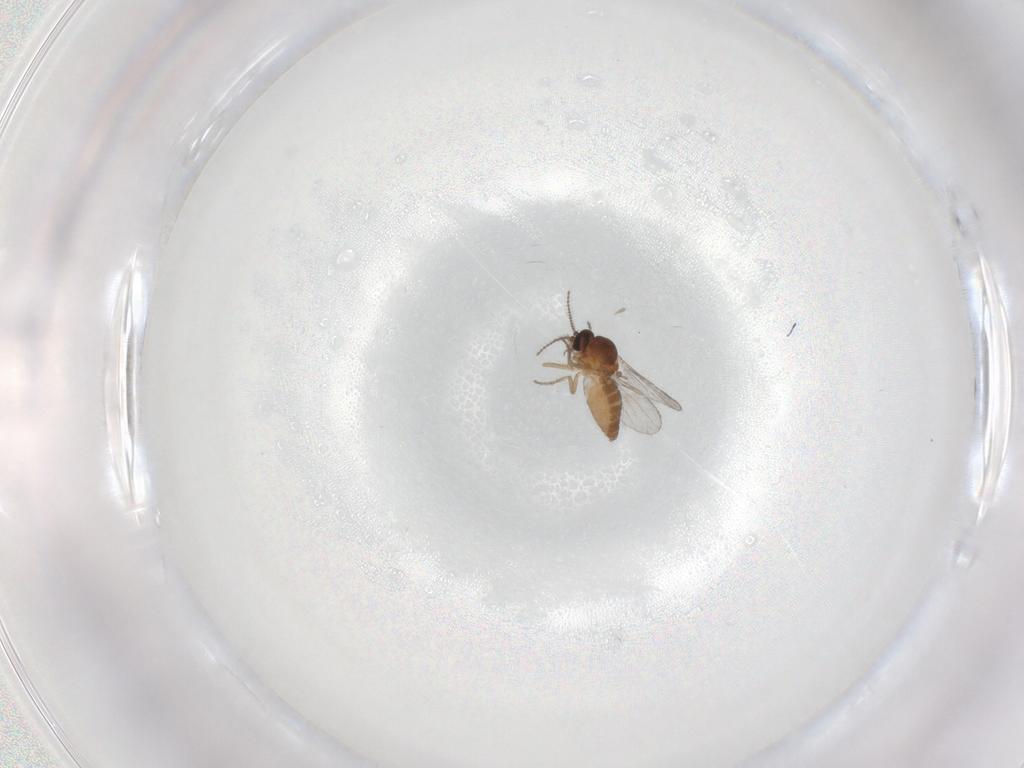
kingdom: Animalia
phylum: Arthropoda
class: Insecta
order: Diptera
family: Ceratopogonidae
